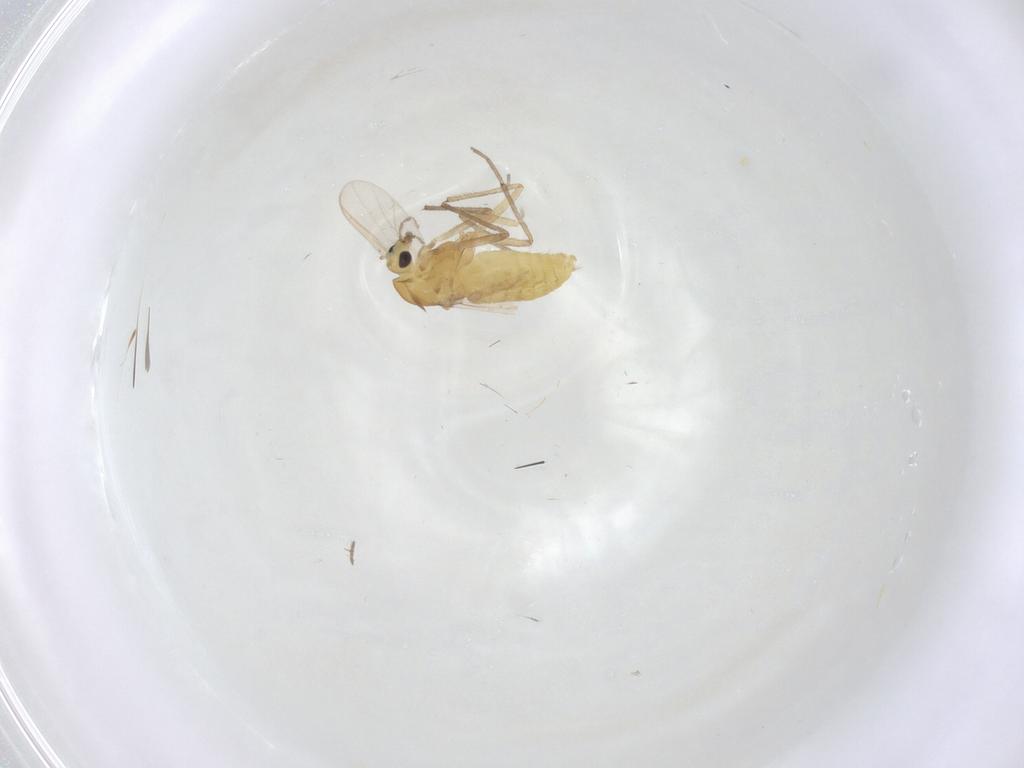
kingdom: Animalia
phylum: Arthropoda
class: Insecta
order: Diptera
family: Chironomidae
